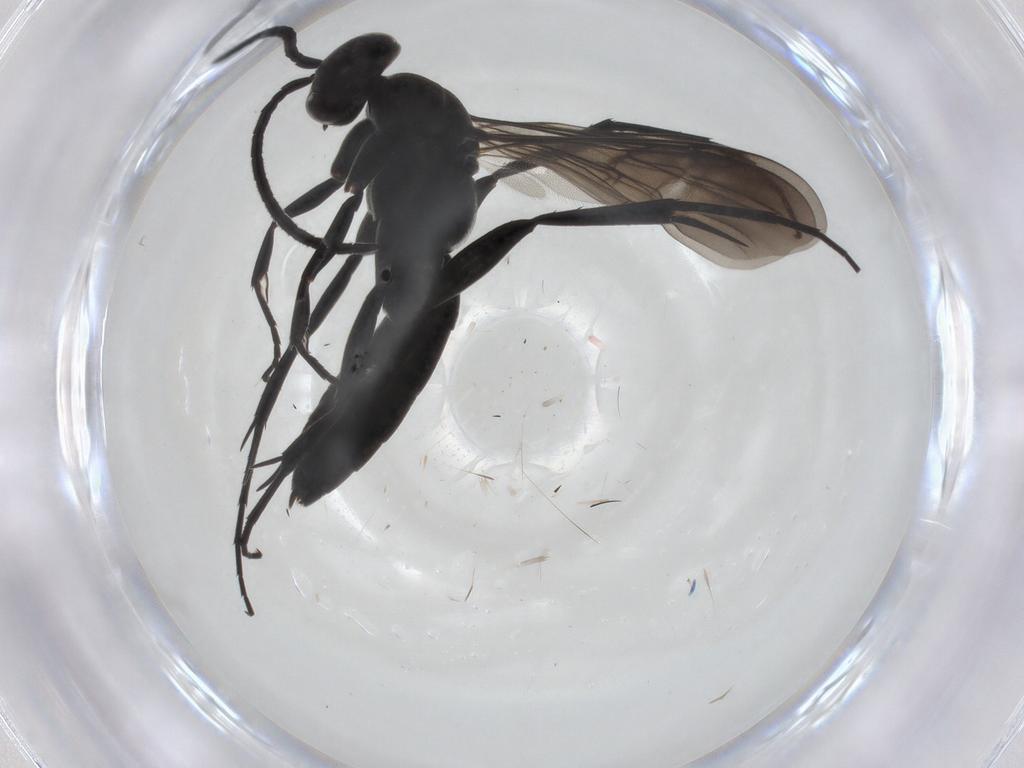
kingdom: Animalia
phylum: Arthropoda
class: Insecta
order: Hymenoptera
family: Pompilidae
